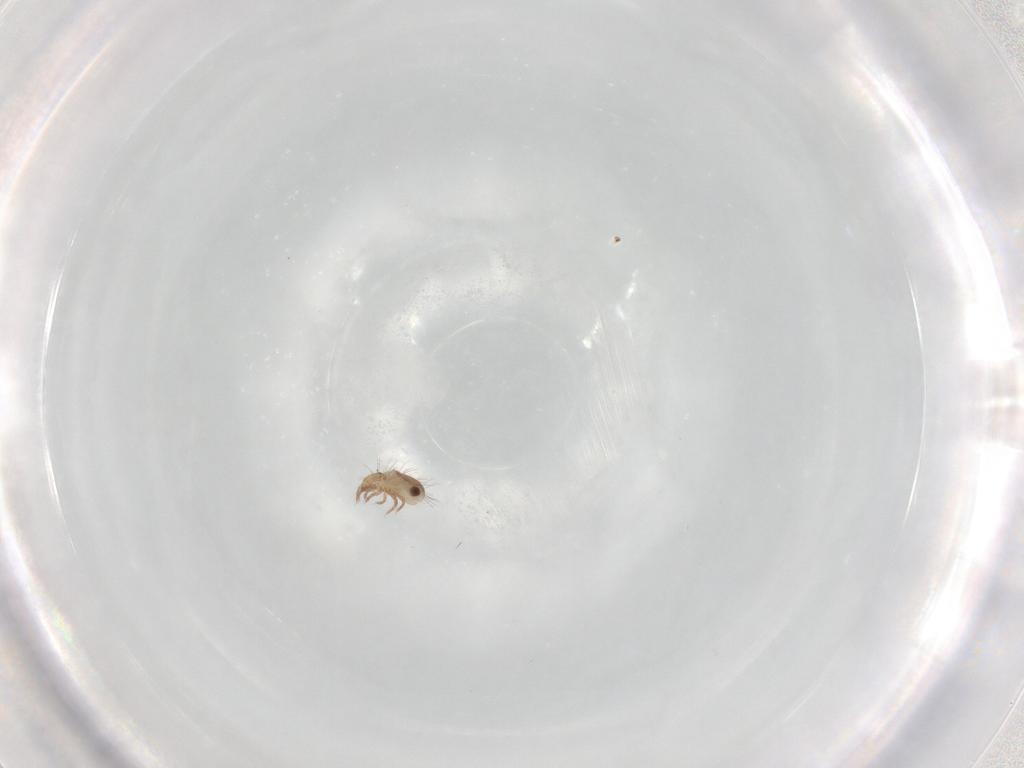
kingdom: Animalia
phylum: Arthropoda
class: Arachnida
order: Sarcoptiformes
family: Humerobatidae
